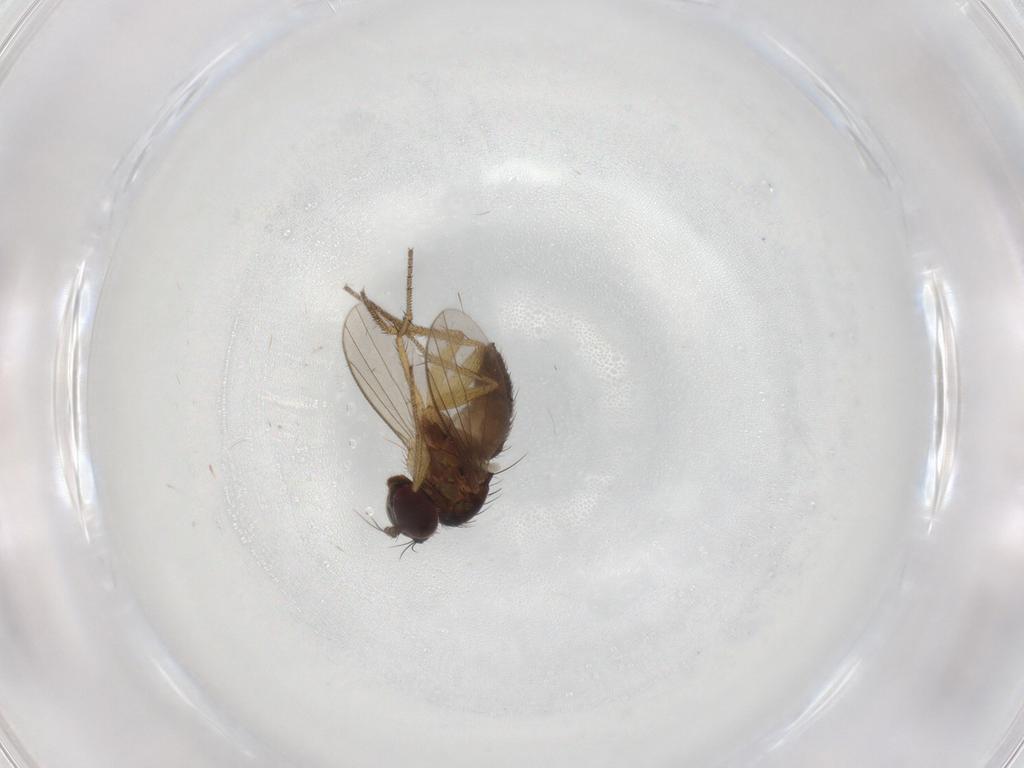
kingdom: Animalia
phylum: Arthropoda
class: Insecta
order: Diptera
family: Dolichopodidae
